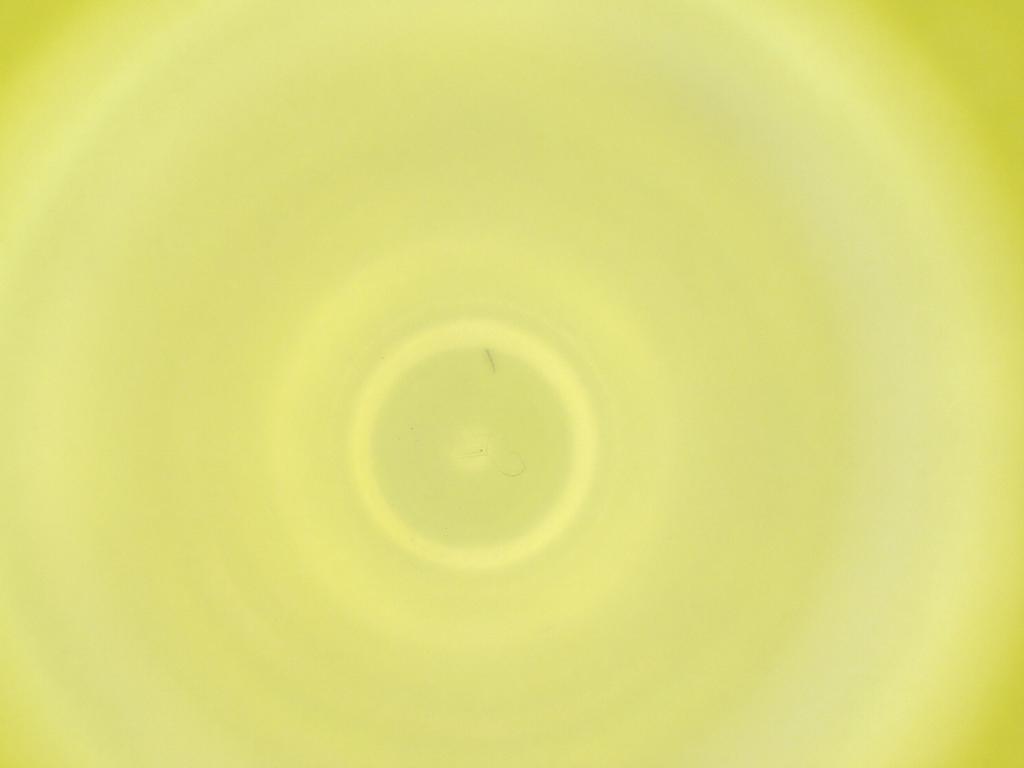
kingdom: Animalia
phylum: Arthropoda
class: Insecta
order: Diptera
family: Cecidomyiidae
